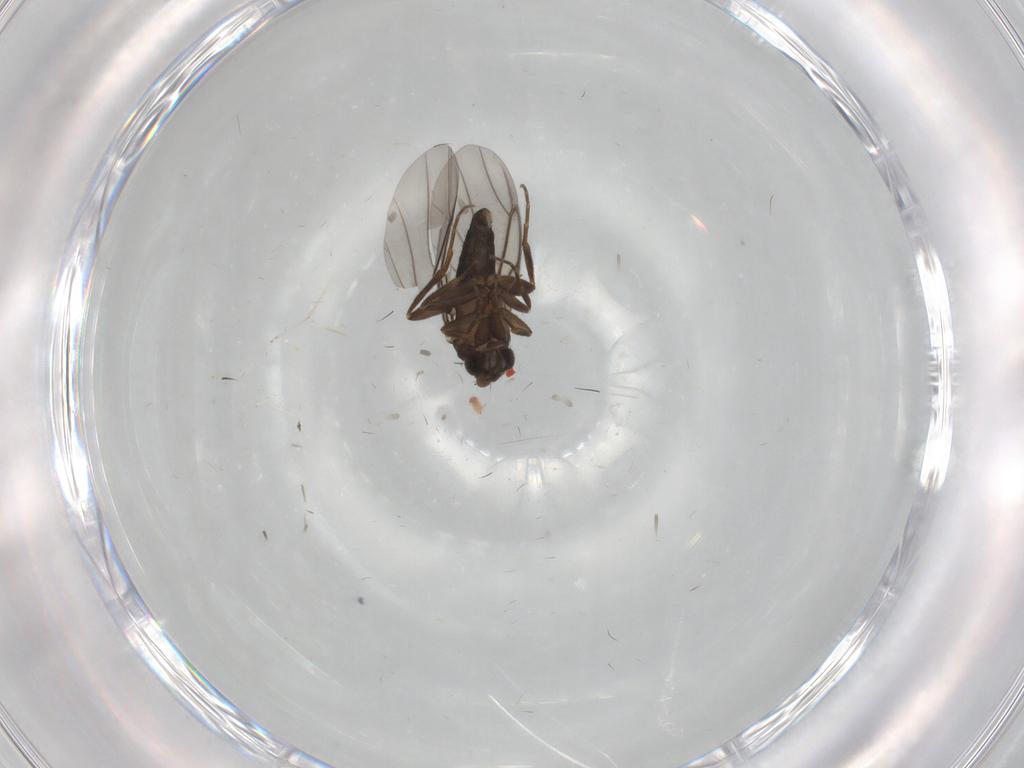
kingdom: Animalia
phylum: Arthropoda
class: Insecta
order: Diptera
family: Cecidomyiidae
